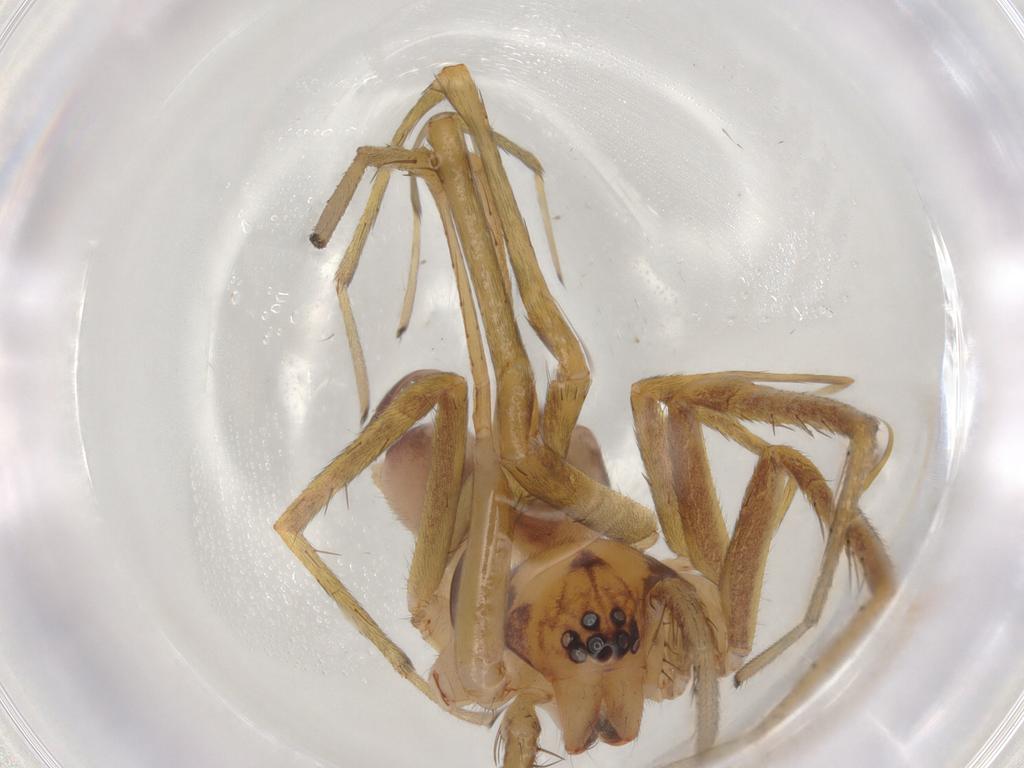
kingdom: Animalia
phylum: Arthropoda
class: Arachnida
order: Araneae
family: Corinnidae
